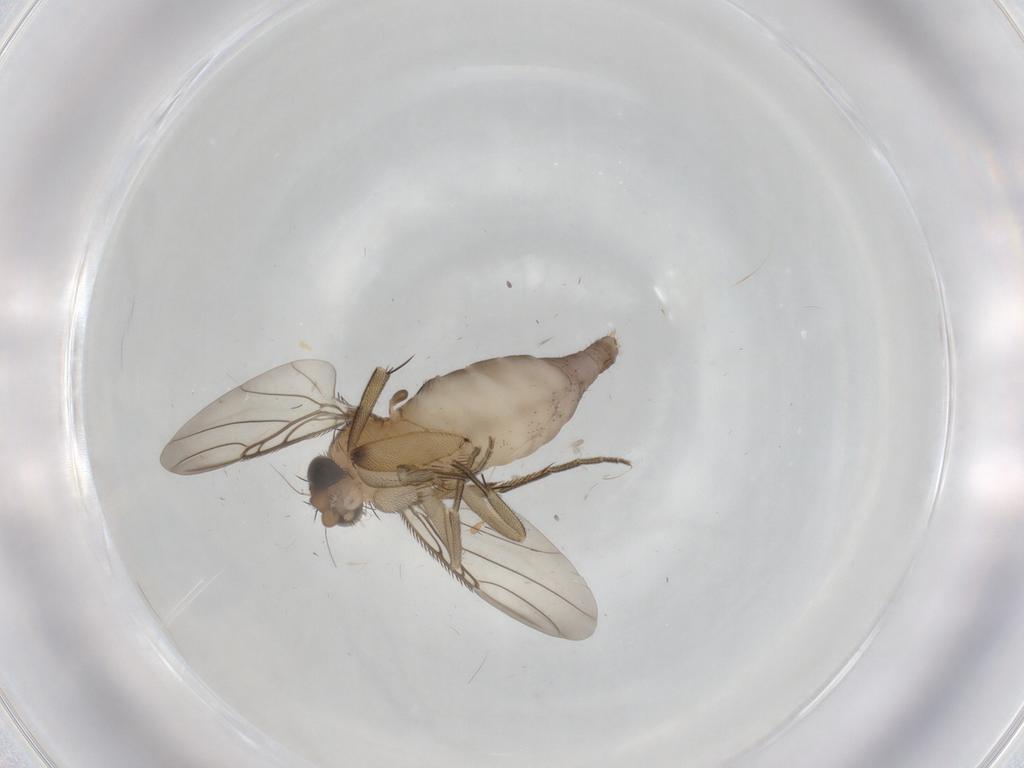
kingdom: Animalia
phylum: Arthropoda
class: Insecta
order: Diptera
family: Phoridae
